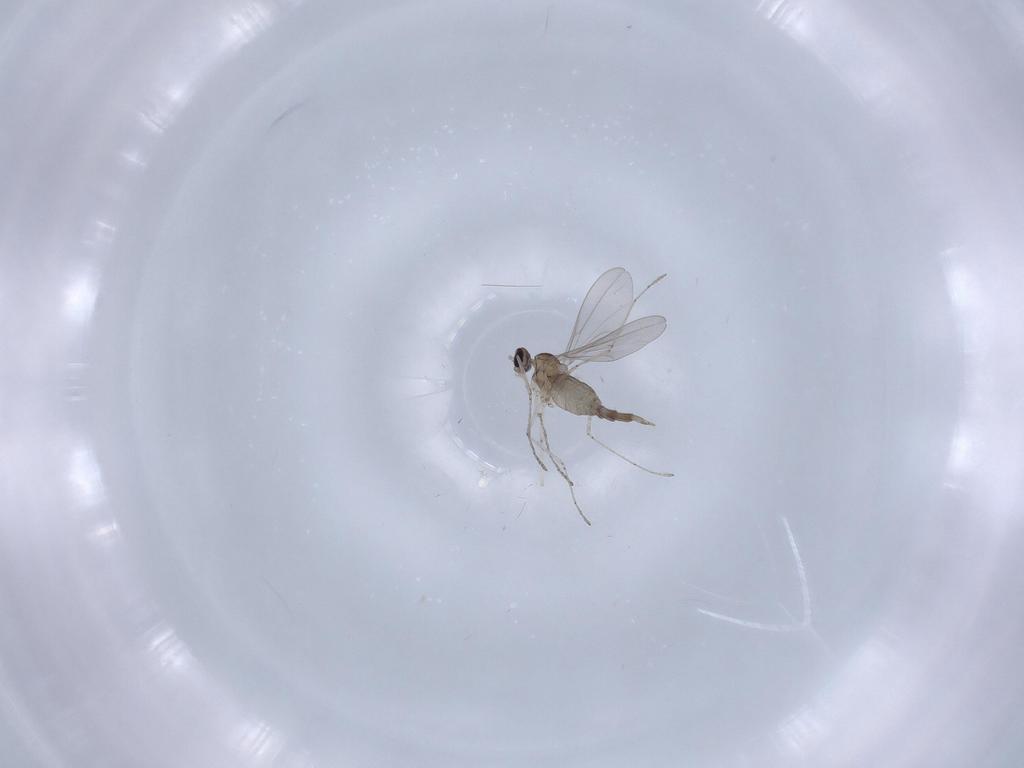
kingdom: Animalia
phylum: Arthropoda
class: Insecta
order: Diptera
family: Cecidomyiidae
